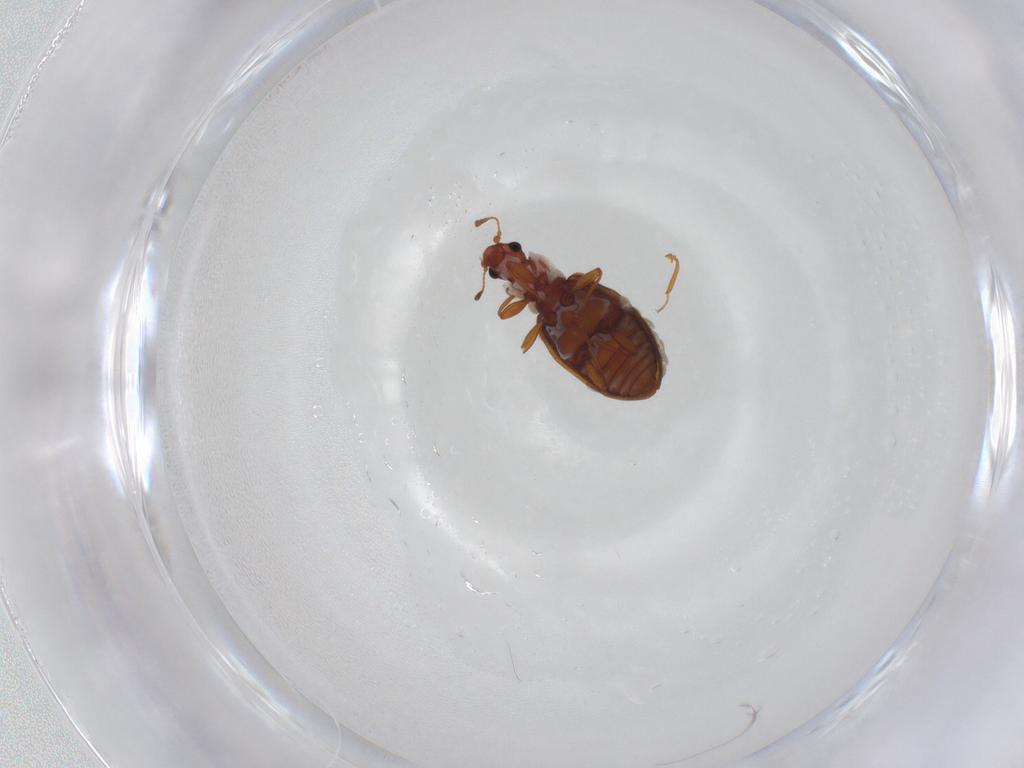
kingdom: Animalia
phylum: Arthropoda
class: Insecta
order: Coleoptera
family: Latridiidae
